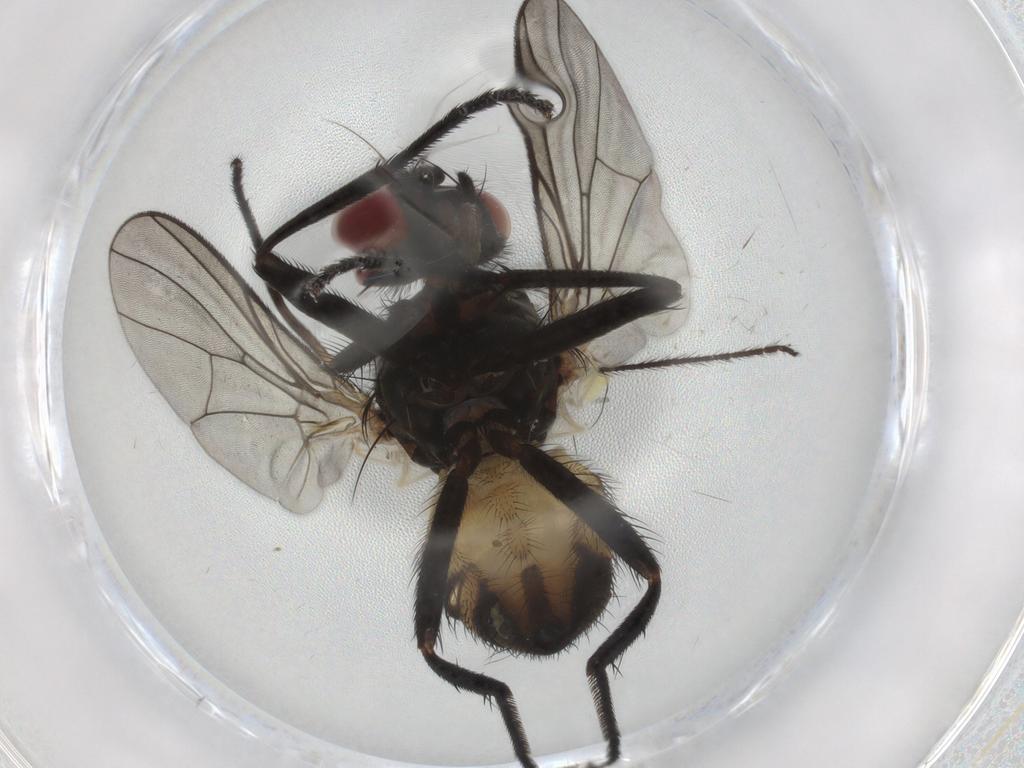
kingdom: Animalia
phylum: Arthropoda
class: Insecta
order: Diptera
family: Muscidae
